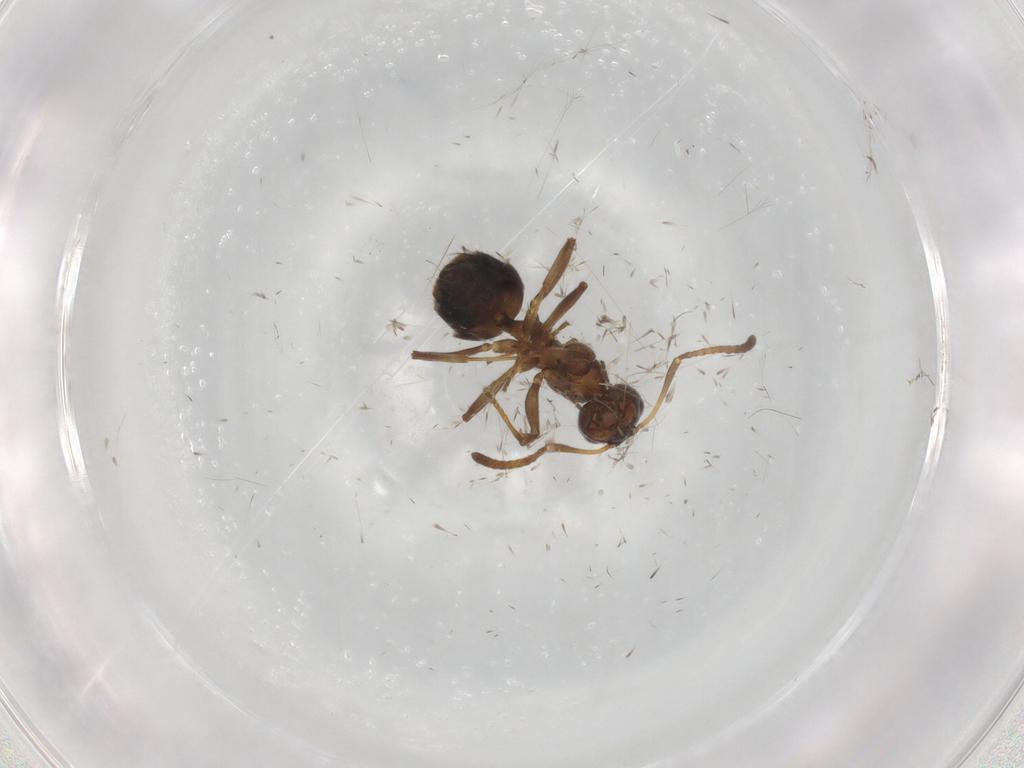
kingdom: Animalia
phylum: Arthropoda
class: Insecta
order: Hymenoptera
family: Formicidae
